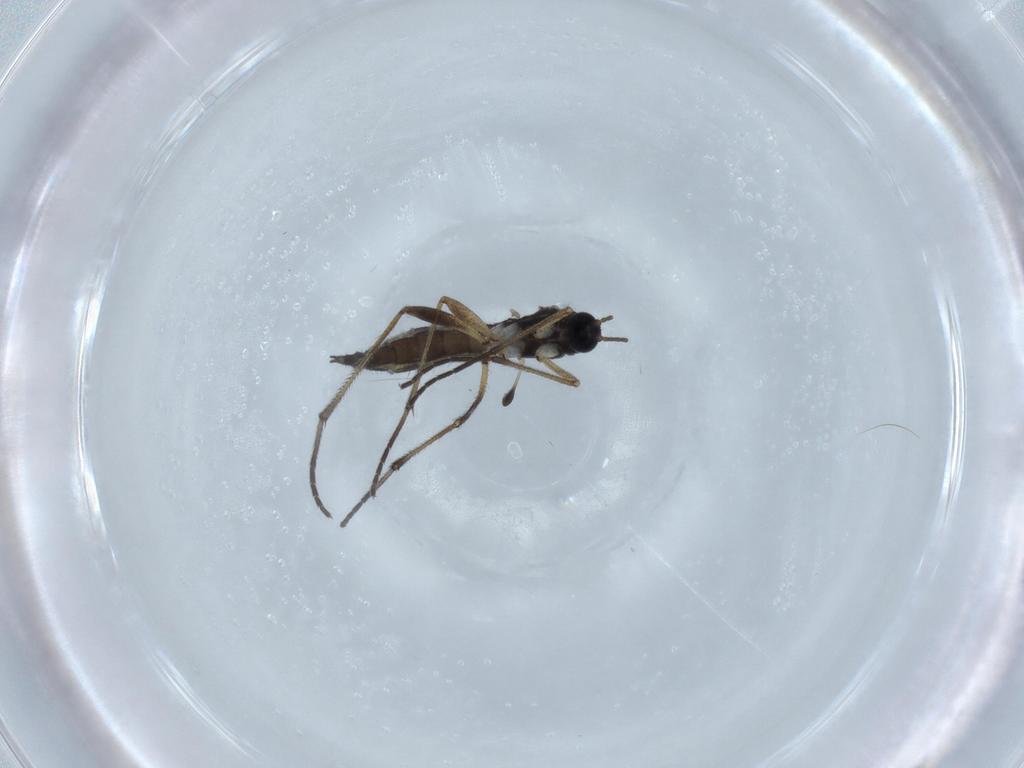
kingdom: Animalia
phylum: Arthropoda
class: Insecta
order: Diptera
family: Sciaridae
